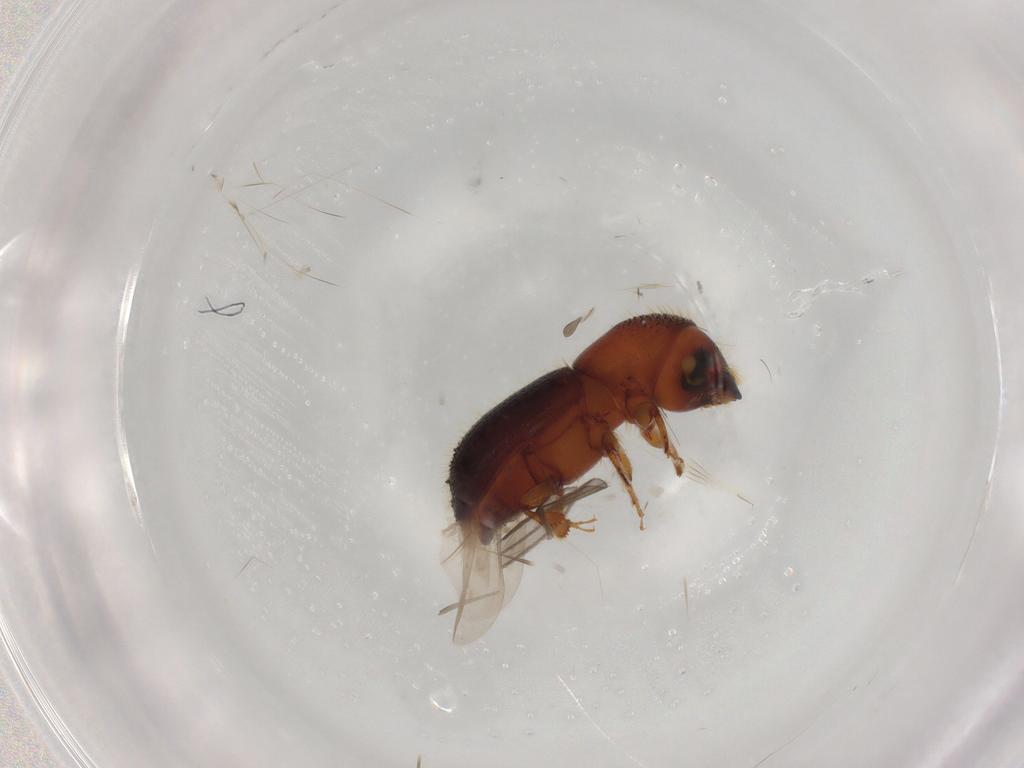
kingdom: Animalia
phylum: Arthropoda
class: Insecta
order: Coleoptera
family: Curculionidae
